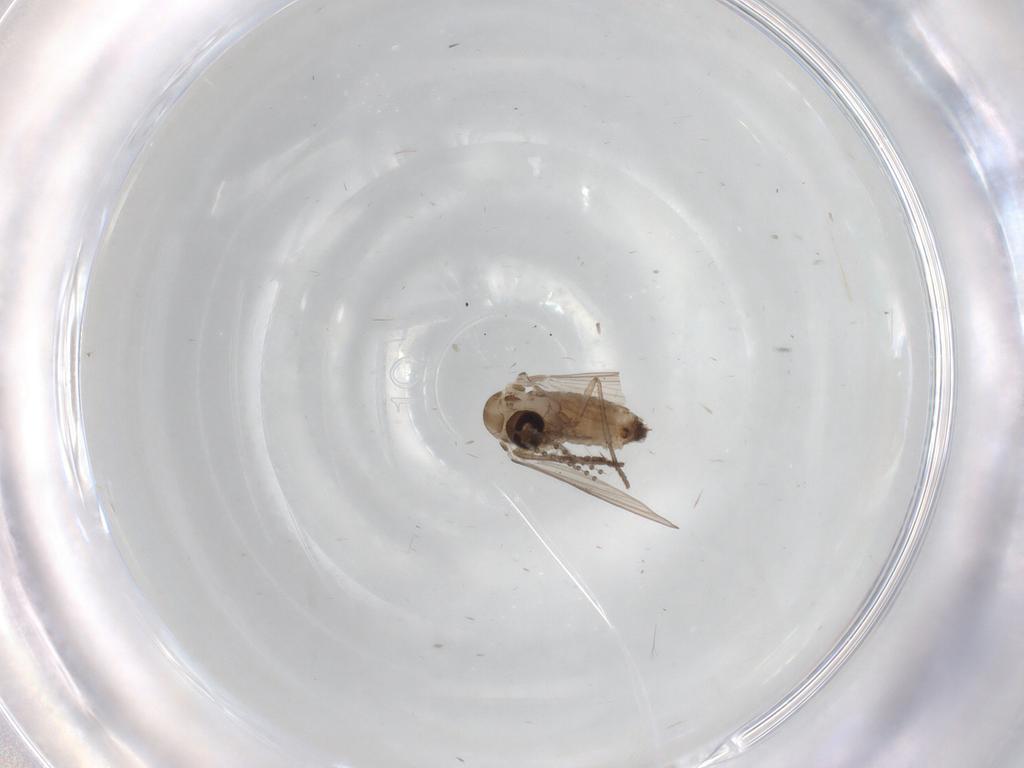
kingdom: Animalia
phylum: Arthropoda
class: Insecta
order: Diptera
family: Psychodidae
